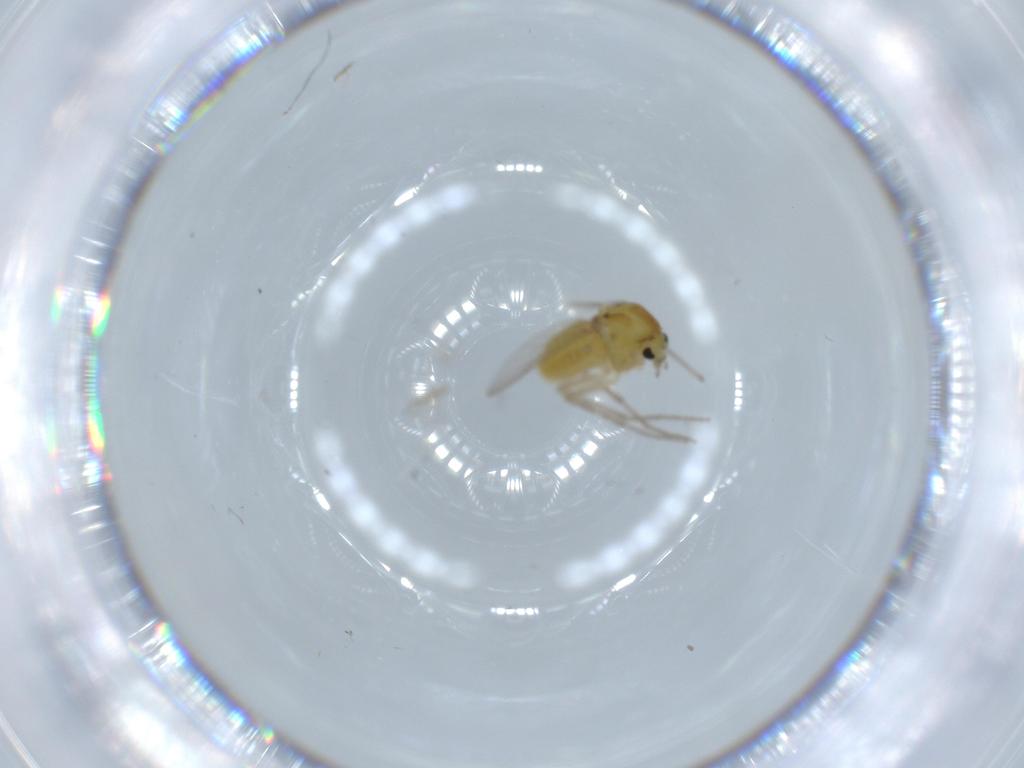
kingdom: Animalia
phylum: Arthropoda
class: Insecta
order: Diptera
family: Chironomidae
